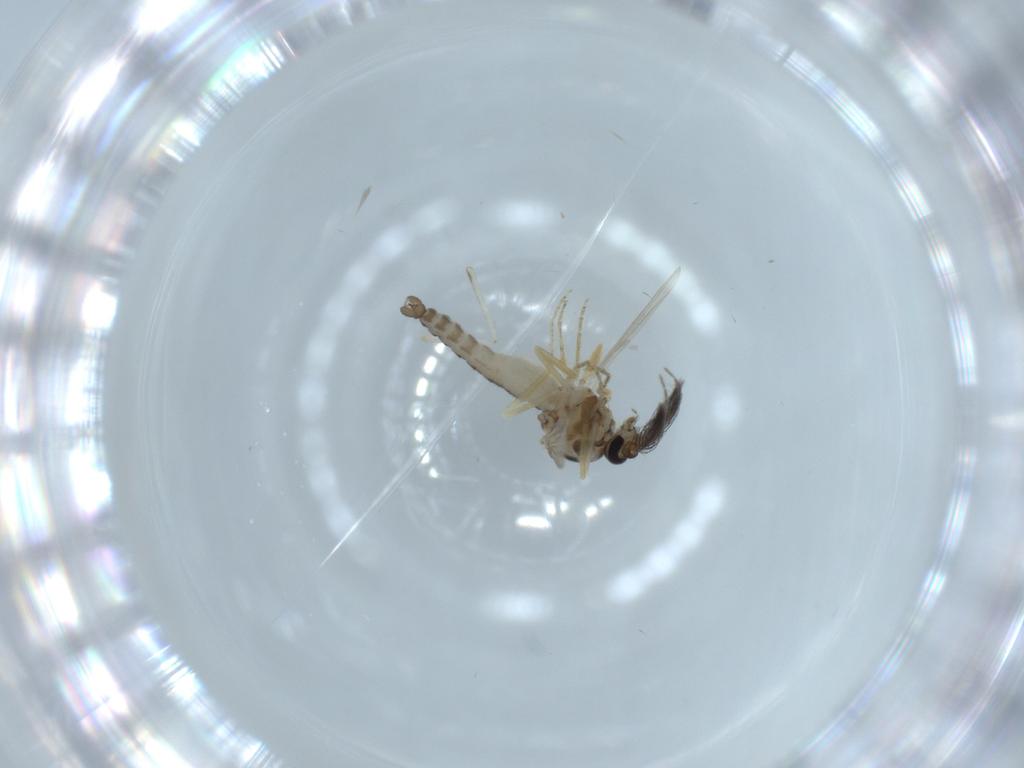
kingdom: Animalia
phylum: Arthropoda
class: Insecta
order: Diptera
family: Ceratopogonidae
